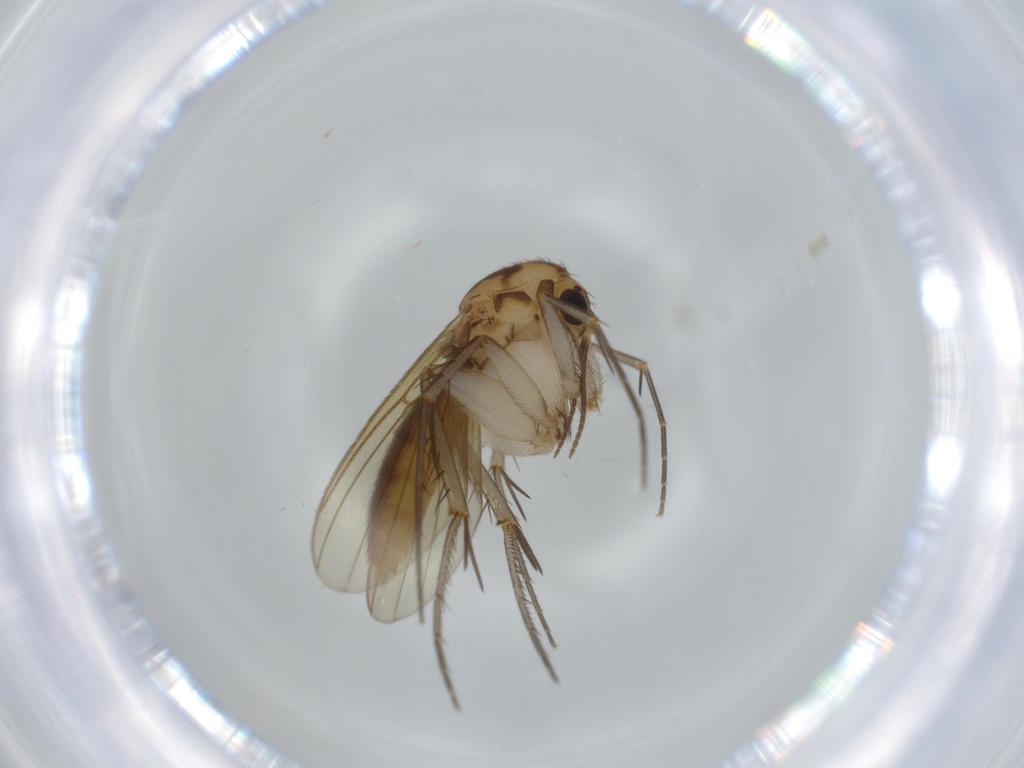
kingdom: Animalia
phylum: Arthropoda
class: Insecta
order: Diptera
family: Mycetophilidae
